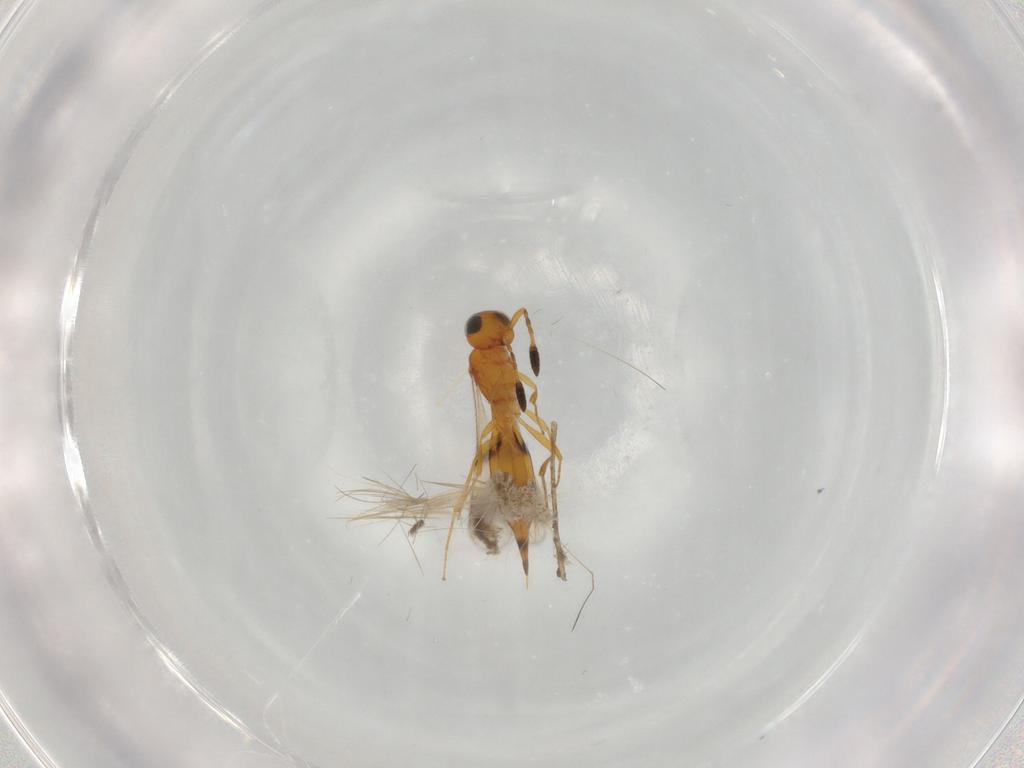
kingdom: Animalia
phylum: Arthropoda
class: Insecta
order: Hymenoptera
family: Formicidae
